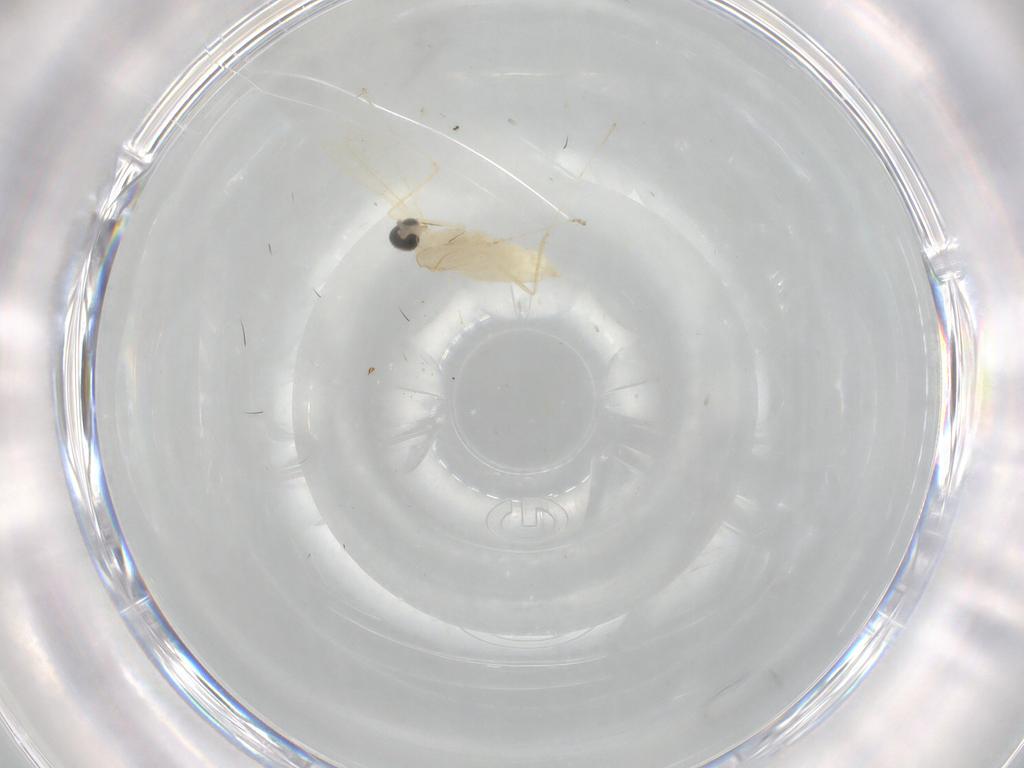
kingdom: Animalia
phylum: Arthropoda
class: Insecta
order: Diptera
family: Cecidomyiidae
